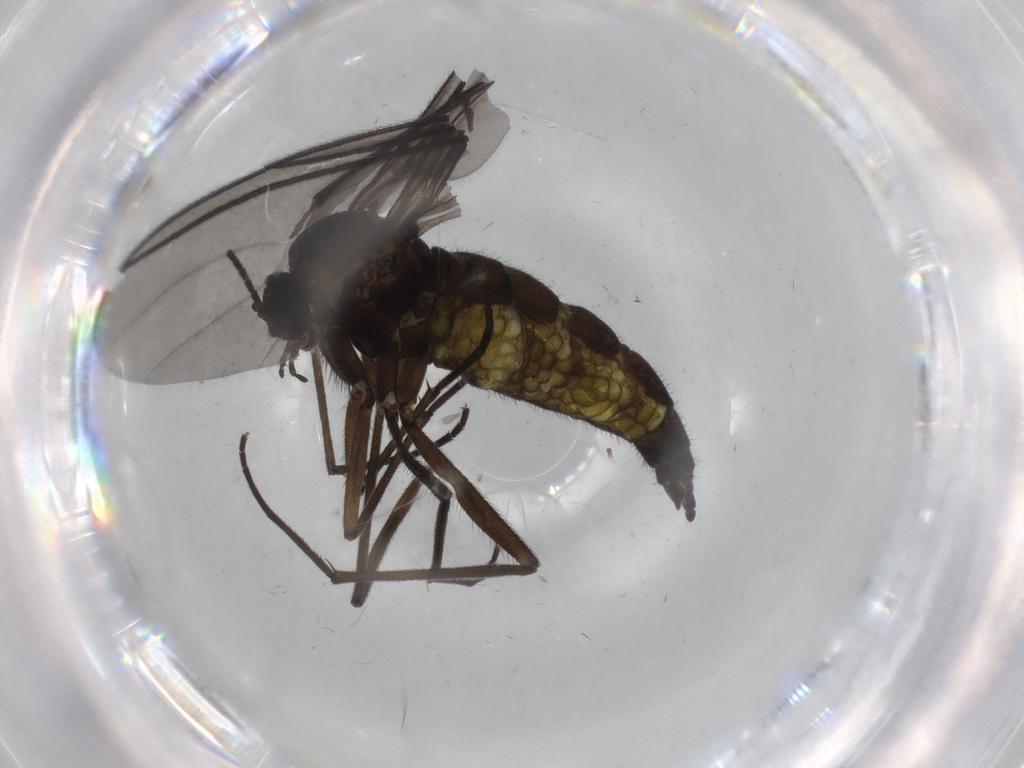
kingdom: Animalia
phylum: Arthropoda
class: Insecta
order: Diptera
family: Sciaridae
